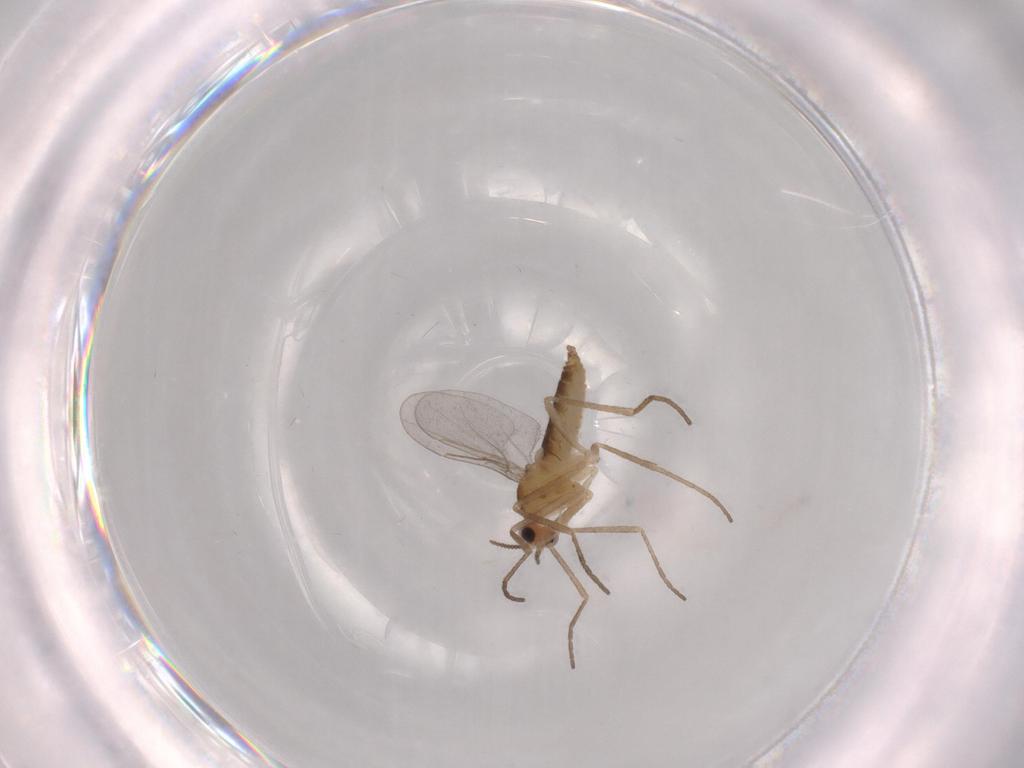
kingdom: Animalia
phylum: Arthropoda
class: Insecta
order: Diptera
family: Cecidomyiidae
